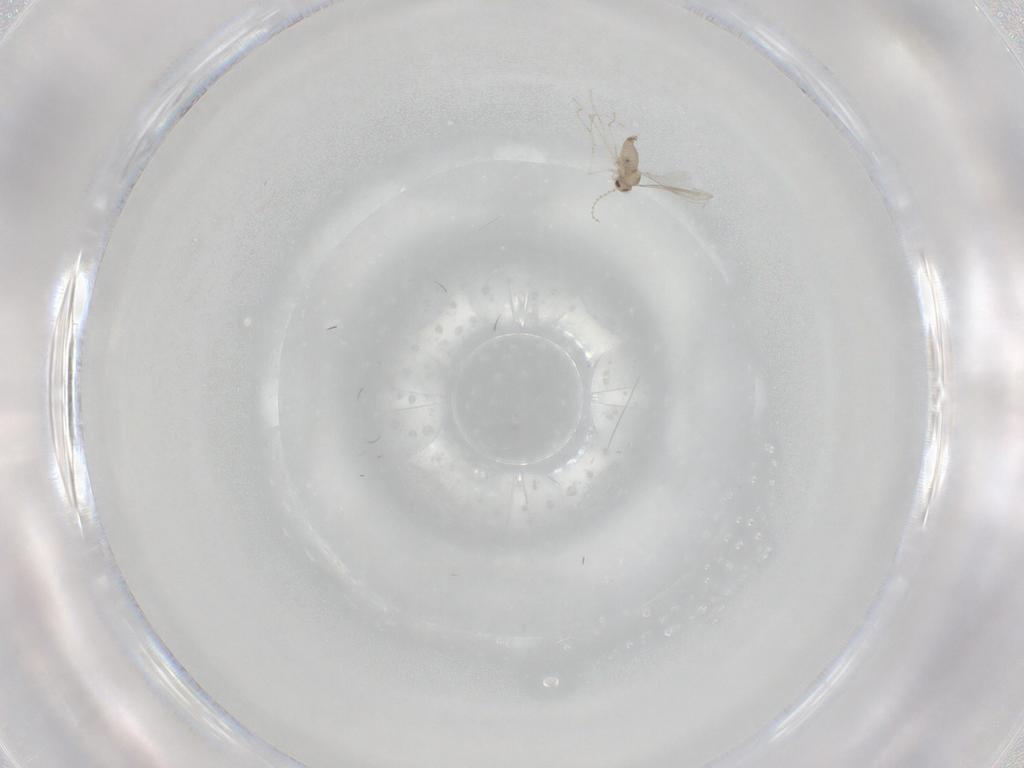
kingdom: Animalia
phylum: Arthropoda
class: Insecta
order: Diptera
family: Cecidomyiidae
